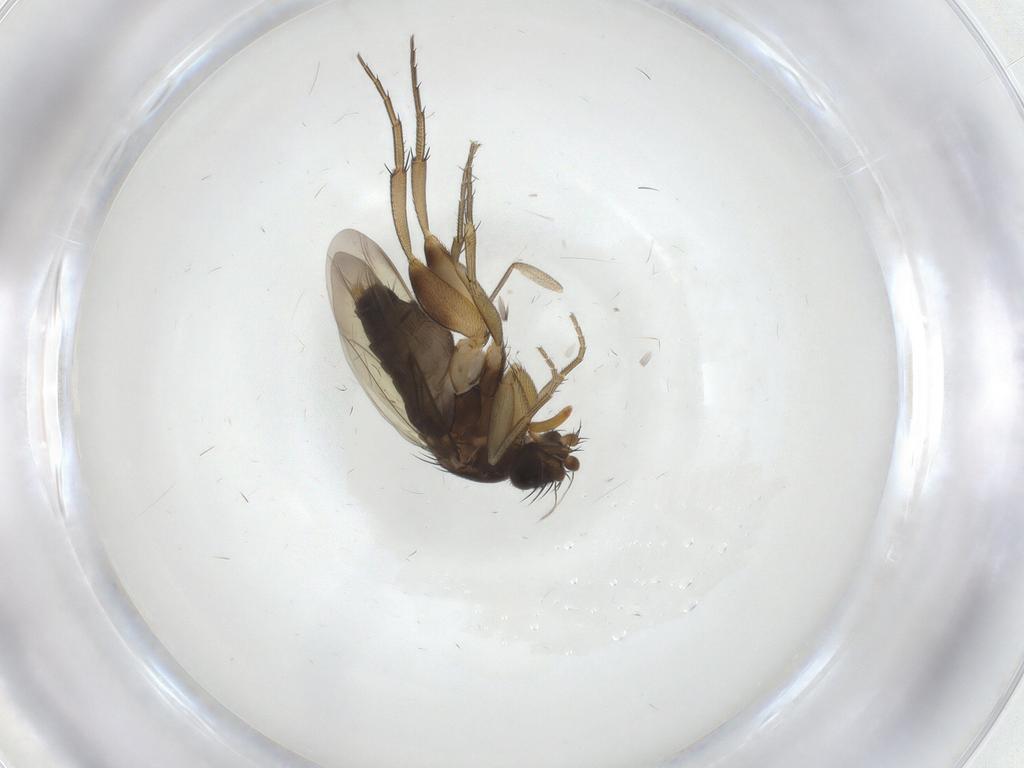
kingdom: Animalia
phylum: Arthropoda
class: Insecta
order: Diptera
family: Sciaridae
